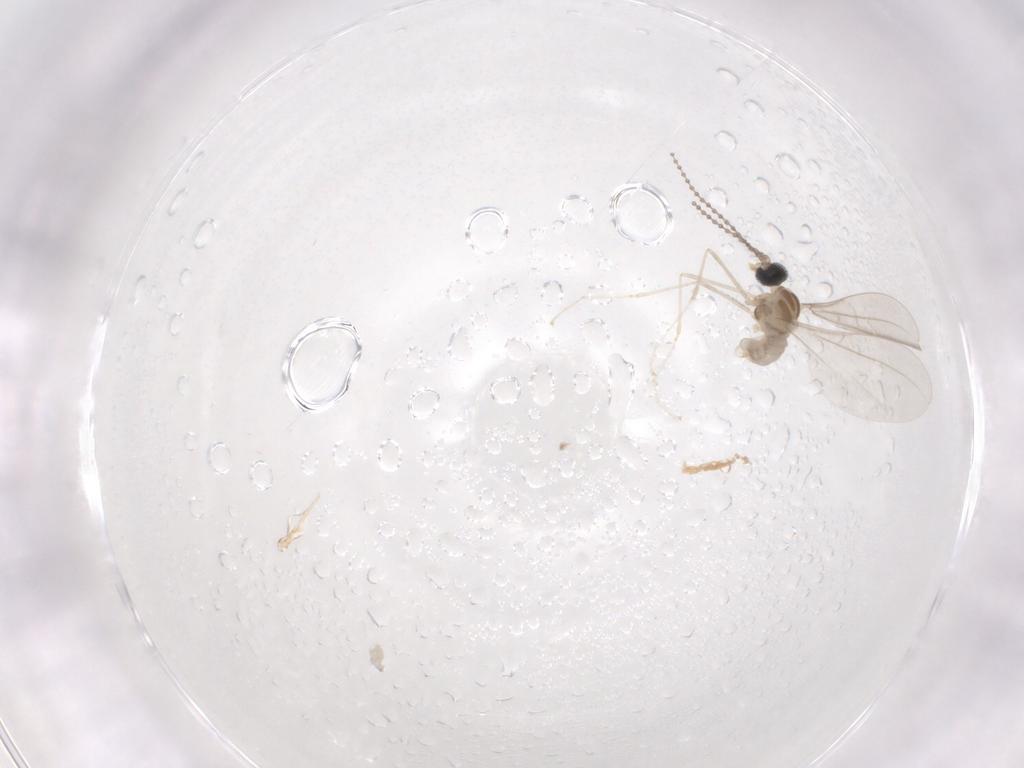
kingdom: Animalia
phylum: Arthropoda
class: Insecta
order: Diptera
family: Cecidomyiidae
